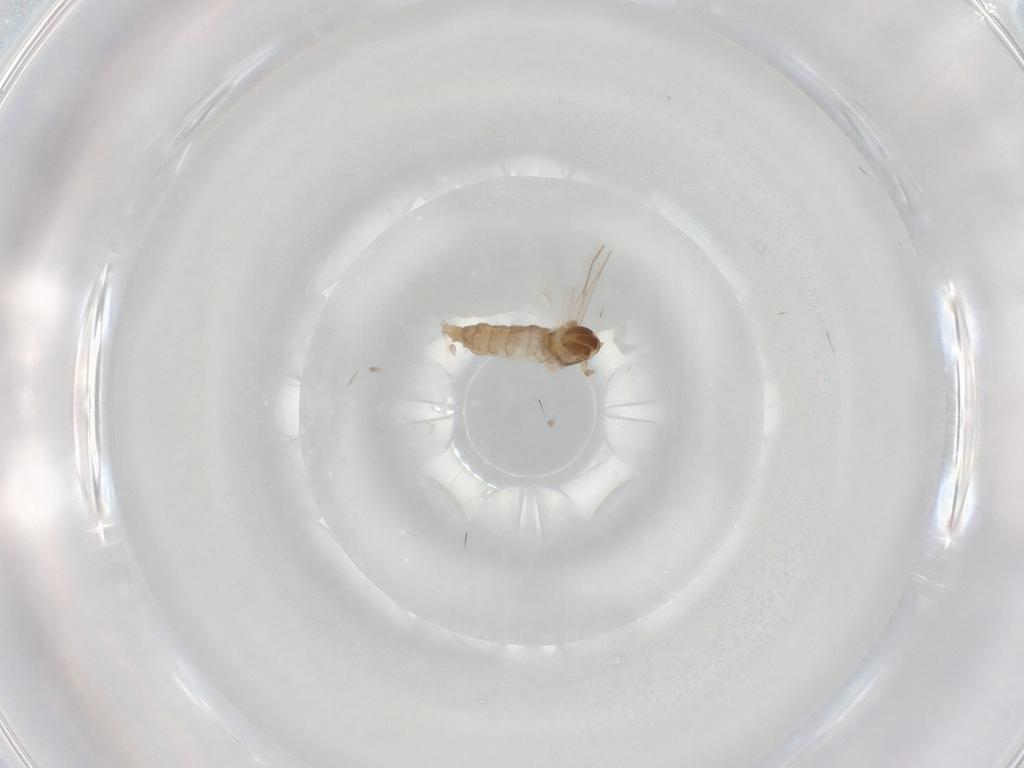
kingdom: Animalia
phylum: Arthropoda
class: Insecta
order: Diptera
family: Cecidomyiidae
